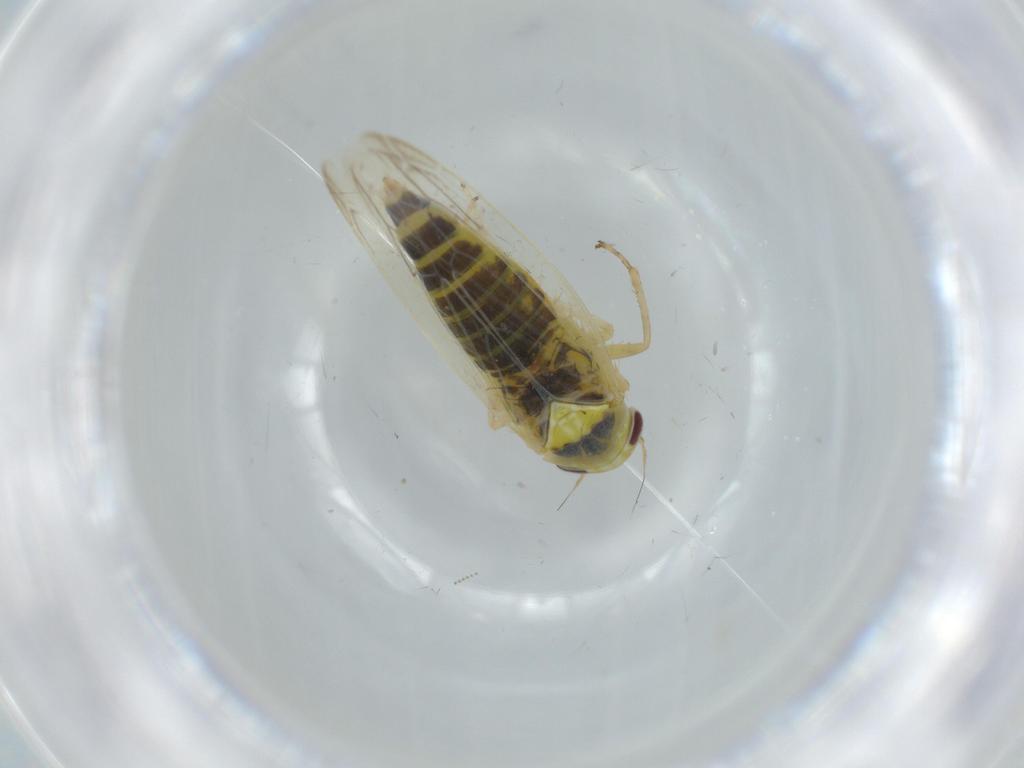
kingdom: Animalia
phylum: Arthropoda
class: Insecta
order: Hemiptera
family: Cicadellidae
